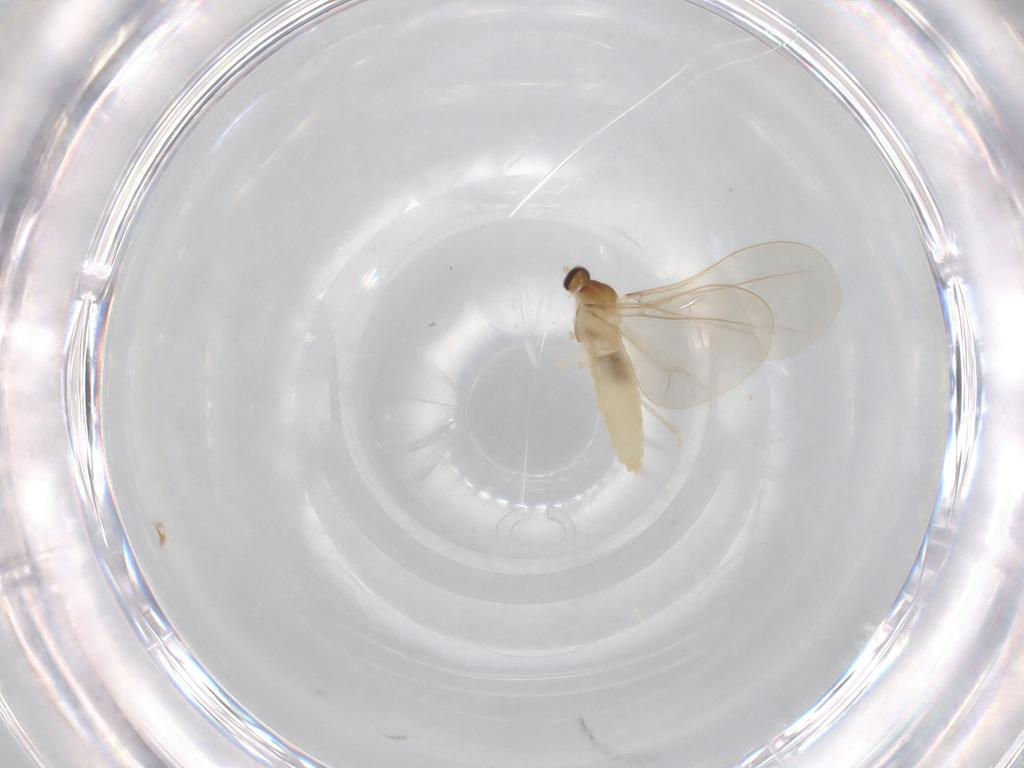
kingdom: Animalia
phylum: Arthropoda
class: Insecta
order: Diptera
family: Cecidomyiidae
